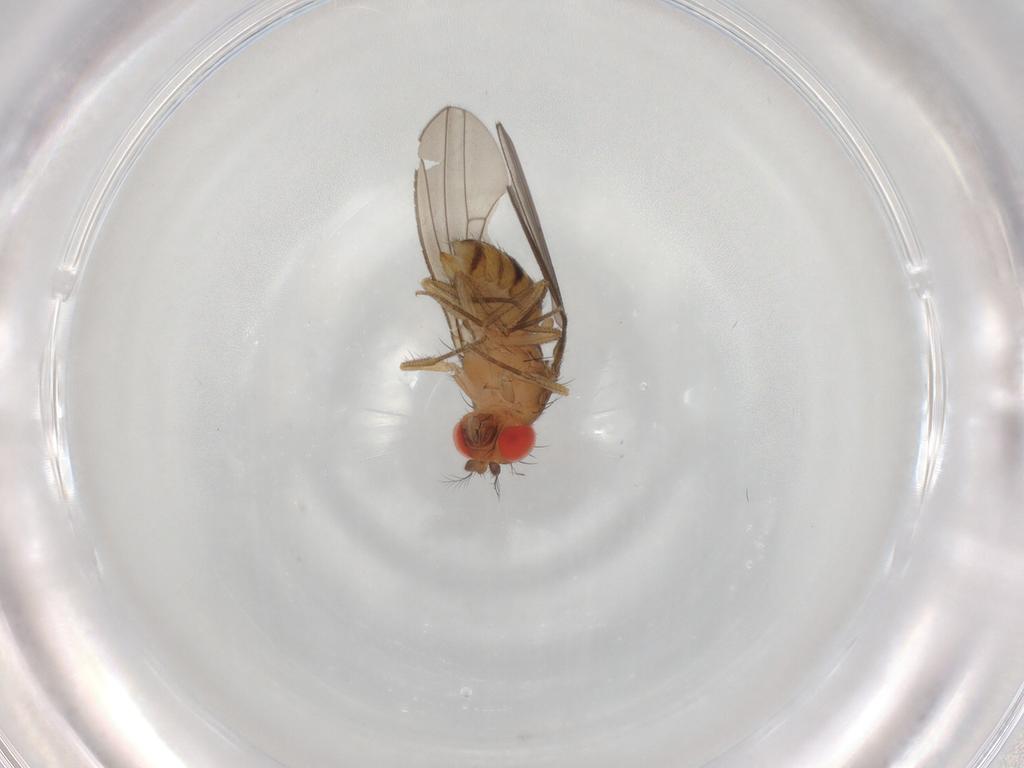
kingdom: Animalia
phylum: Arthropoda
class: Insecta
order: Diptera
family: Drosophilidae
